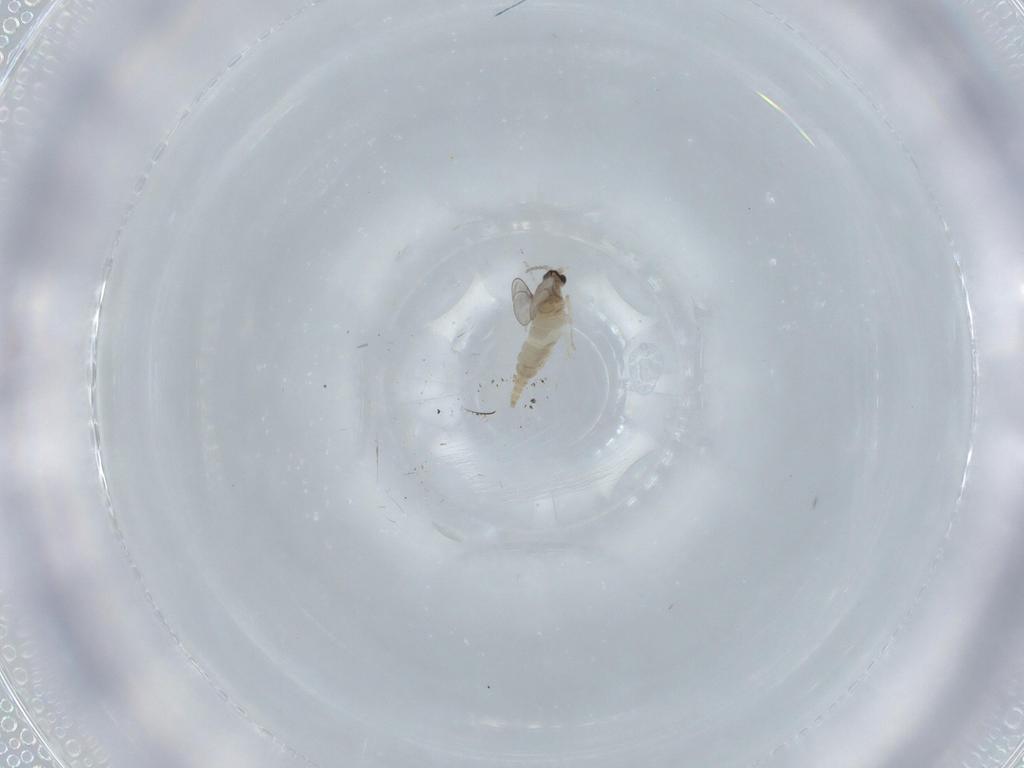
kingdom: Animalia
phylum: Arthropoda
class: Insecta
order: Diptera
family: Cecidomyiidae
